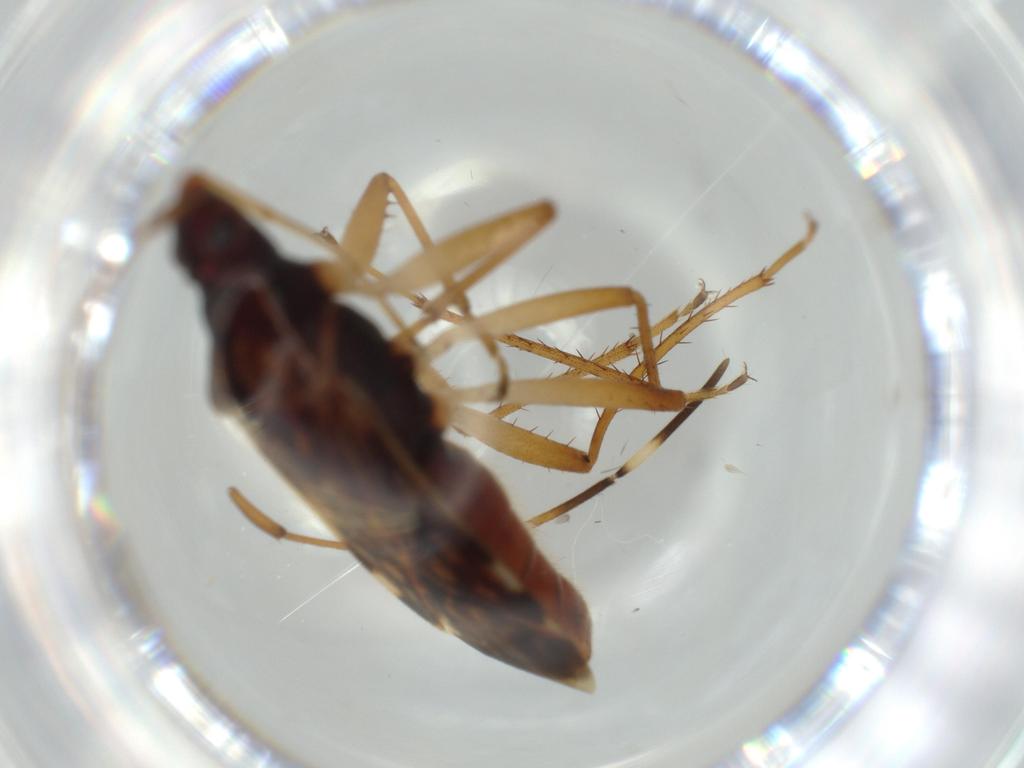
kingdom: Animalia
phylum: Arthropoda
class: Insecta
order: Hemiptera
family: Rhyparochromidae
